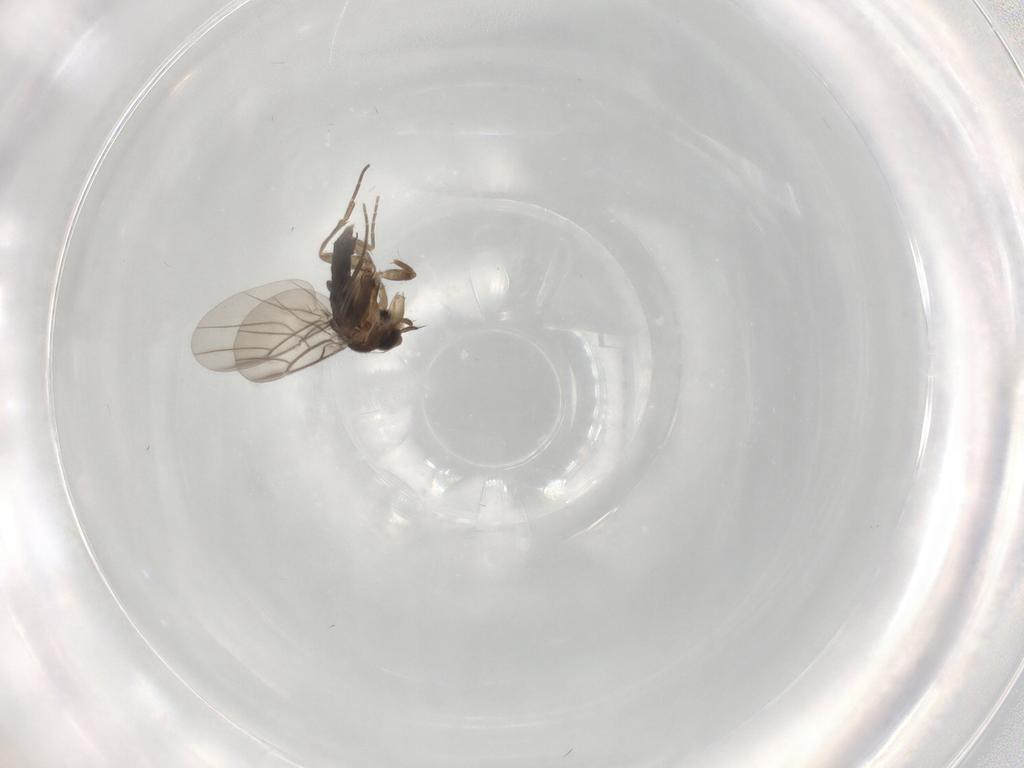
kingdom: Animalia
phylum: Arthropoda
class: Insecta
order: Diptera
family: Sciaridae
